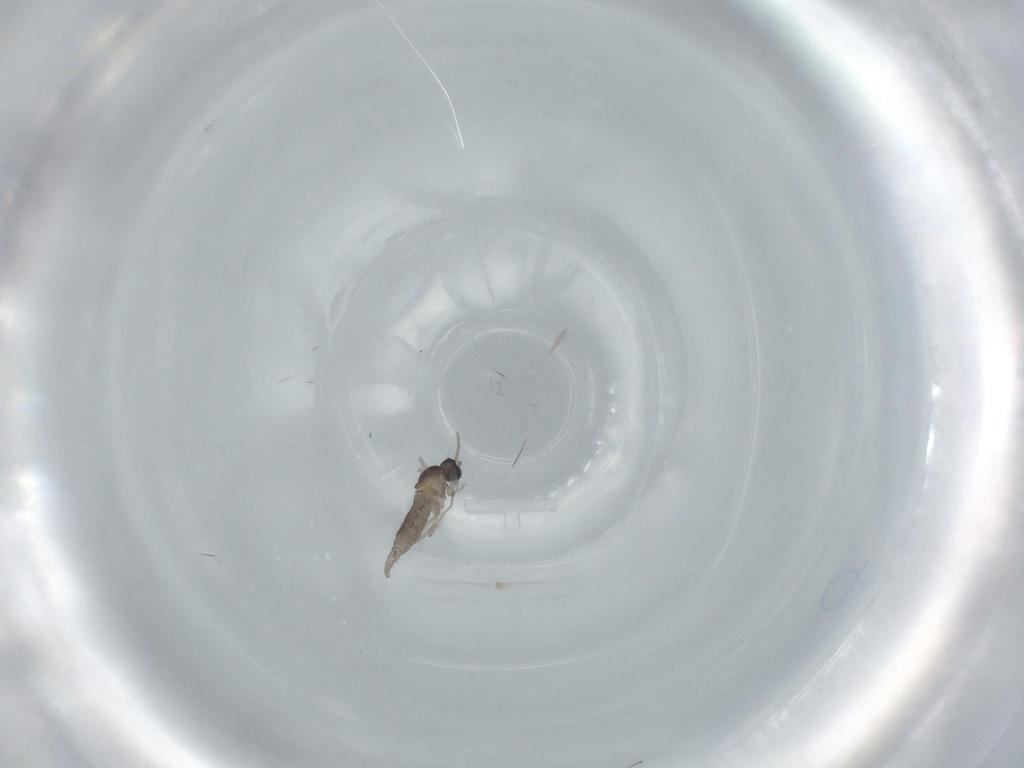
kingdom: Animalia
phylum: Arthropoda
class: Insecta
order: Diptera
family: Cecidomyiidae
